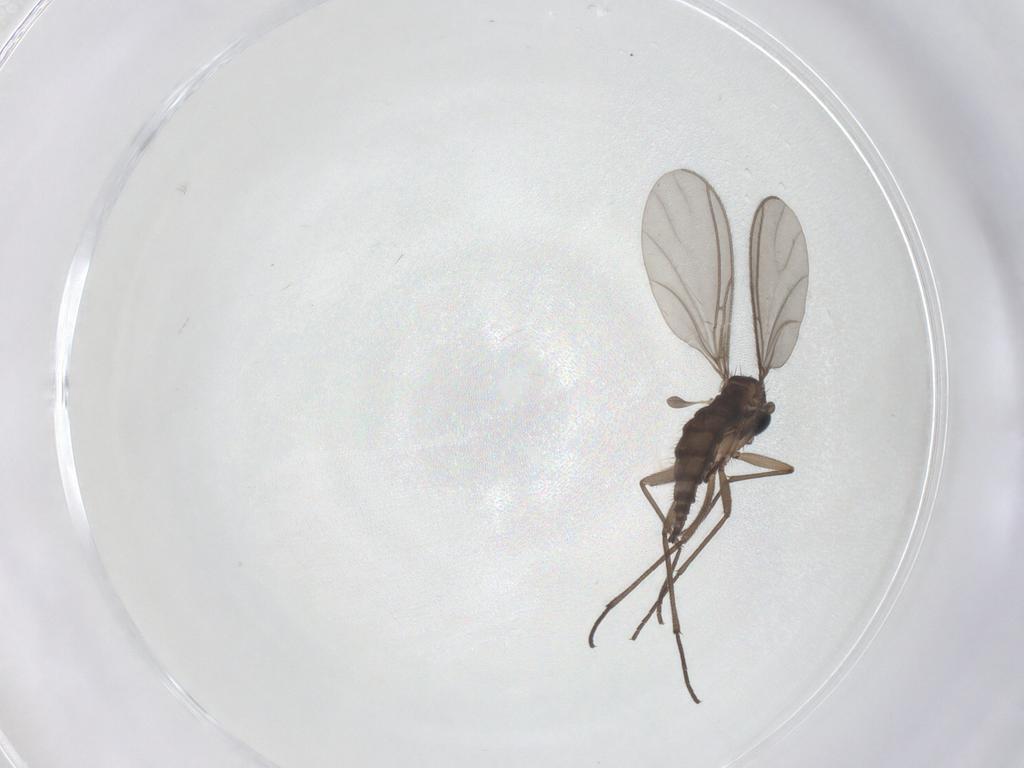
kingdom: Animalia
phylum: Arthropoda
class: Insecta
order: Diptera
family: Sciaridae
